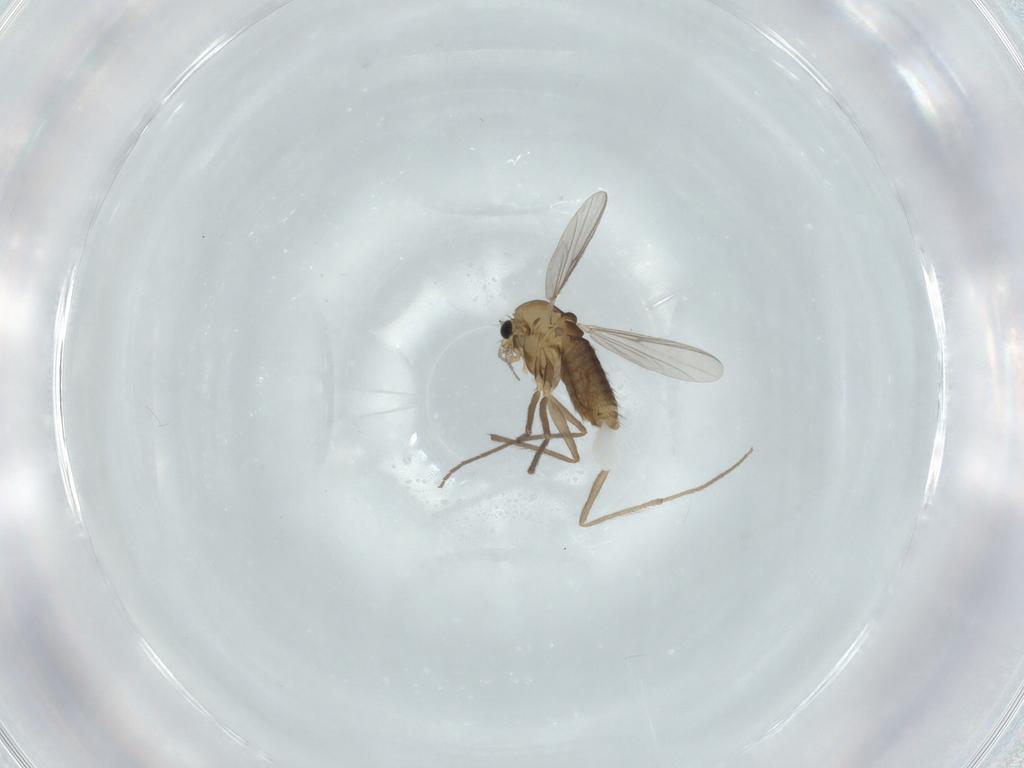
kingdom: Animalia
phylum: Arthropoda
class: Insecta
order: Diptera
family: Chironomidae
